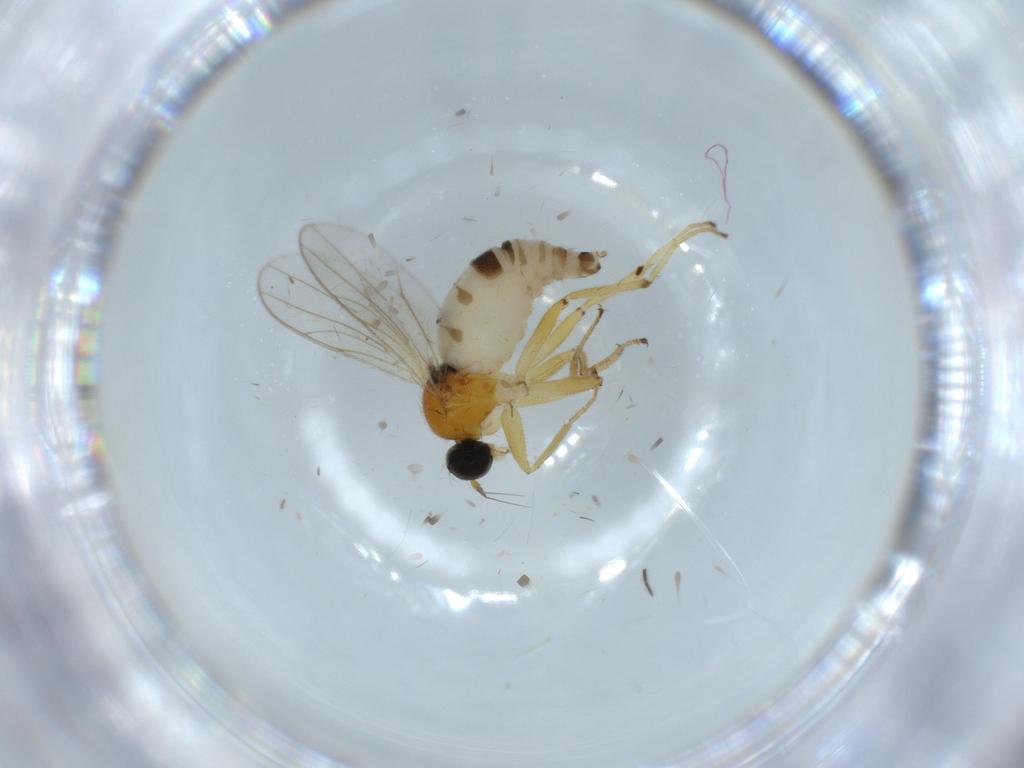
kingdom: Animalia
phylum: Arthropoda
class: Insecta
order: Diptera
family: Hybotidae
